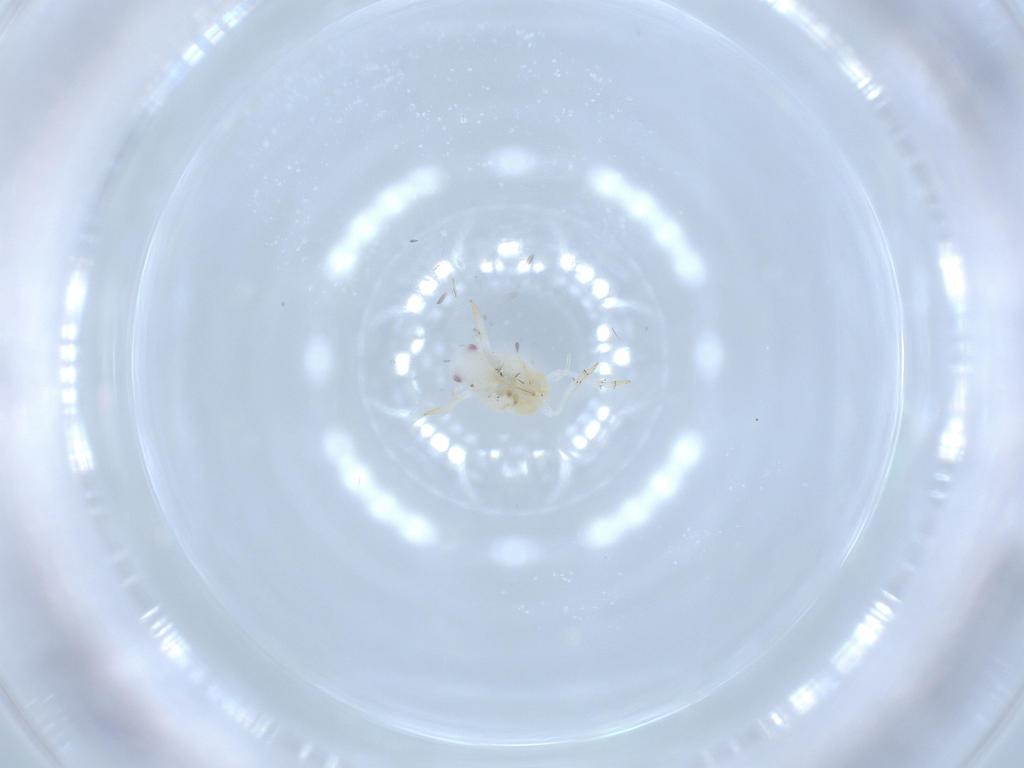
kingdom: Animalia
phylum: Arthropoda
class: Insecta
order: Hemiptera
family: Flatidae
